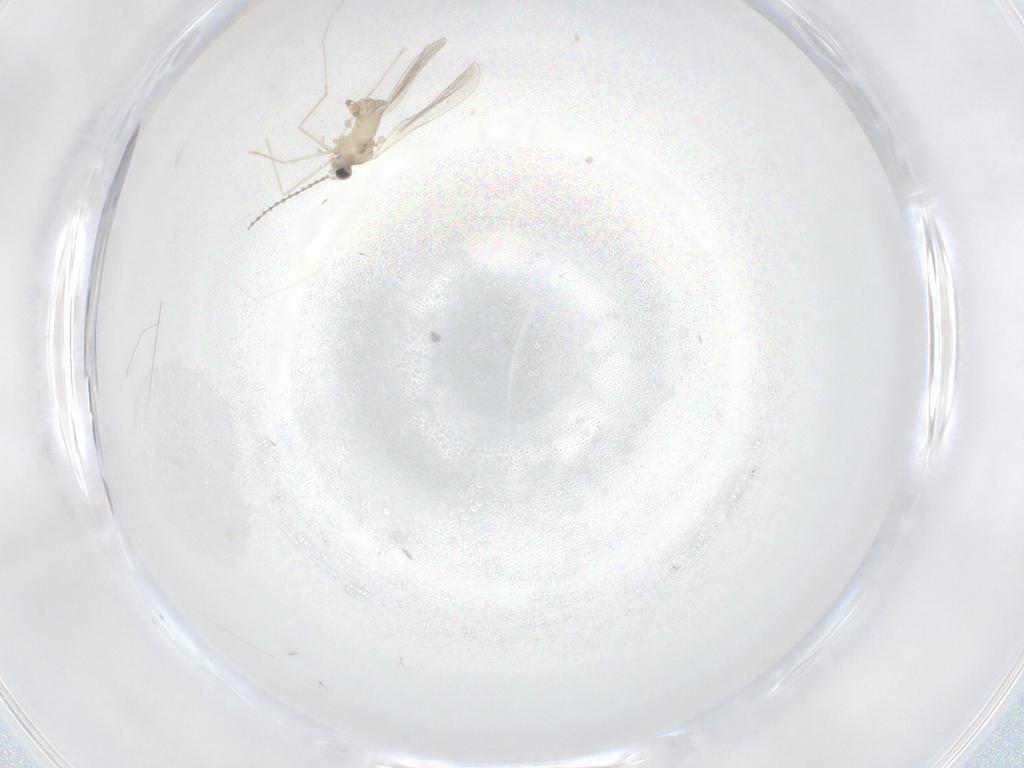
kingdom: Animalia
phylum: Arthropoda
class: Insecta
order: Diptera
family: Cecidomyiidae
